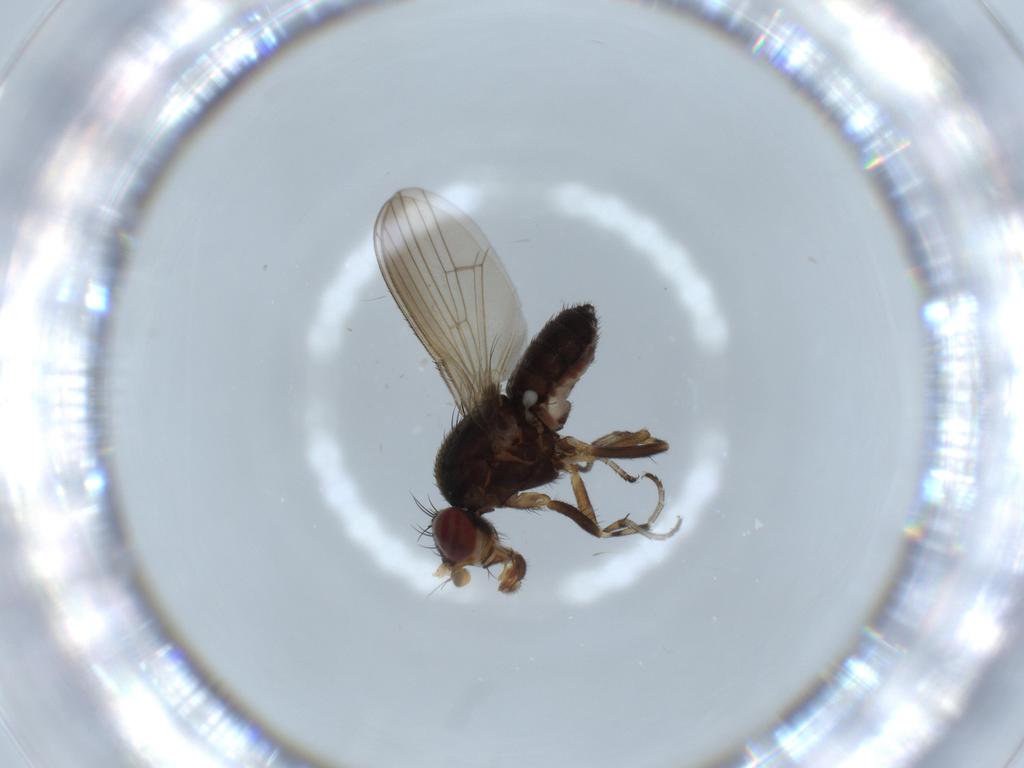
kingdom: Animalia
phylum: Arthropoda
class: Insecta
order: Diptera
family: Heleomyzidae
